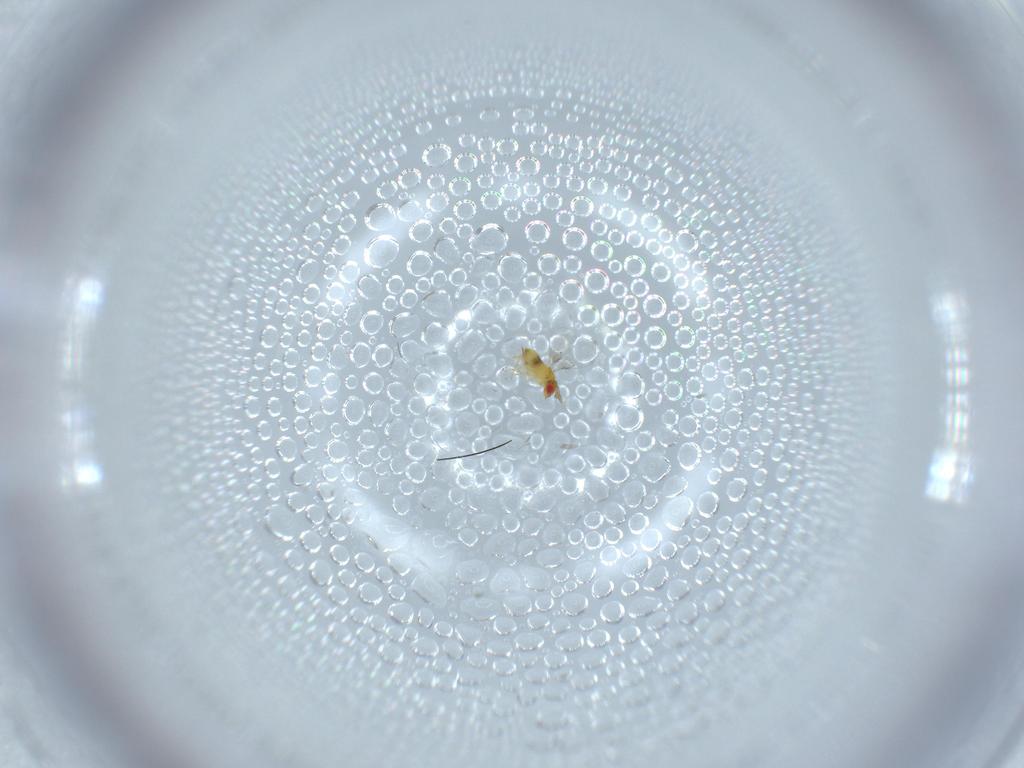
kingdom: Animalia
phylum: Arthropoda
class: Insecta
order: Hymenoptera
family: Trichogrammatidae
